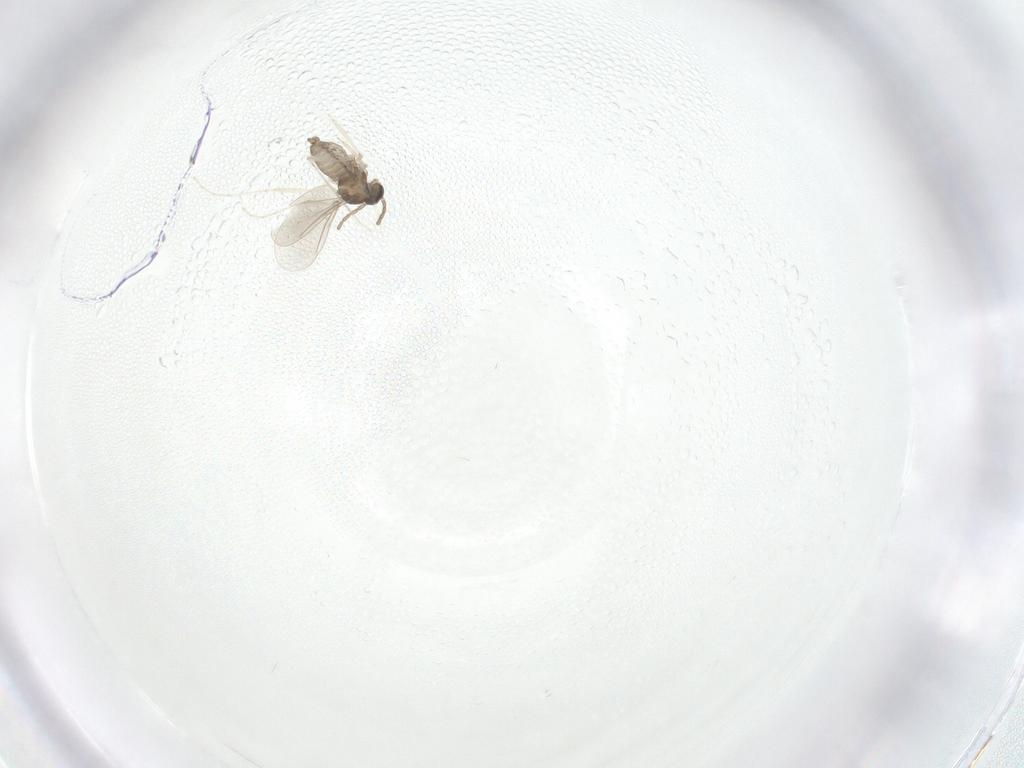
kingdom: Animalia
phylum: Arthropoda
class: Insecta
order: Diptera
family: Cecidomyiidae
